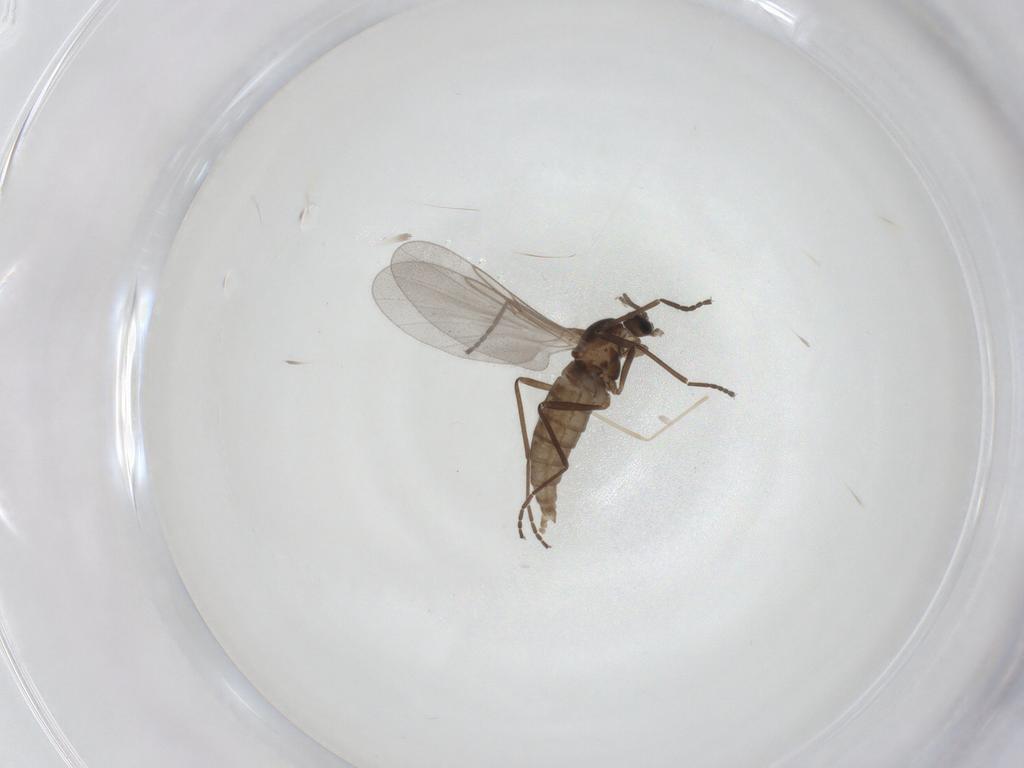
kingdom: Animalia
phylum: Arthropoda
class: Insecta
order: Diptera
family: Cecidomyiidae
